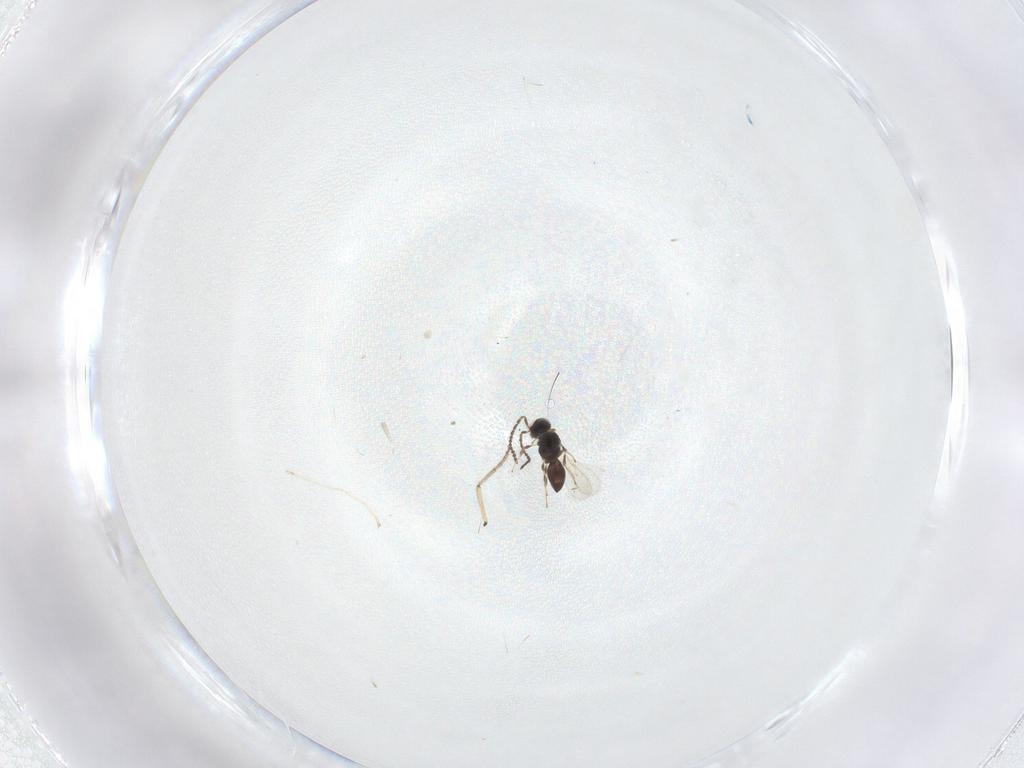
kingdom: Animalia
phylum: Arthropoda
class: Insecta
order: Hymenoptera
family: Scelionidae
